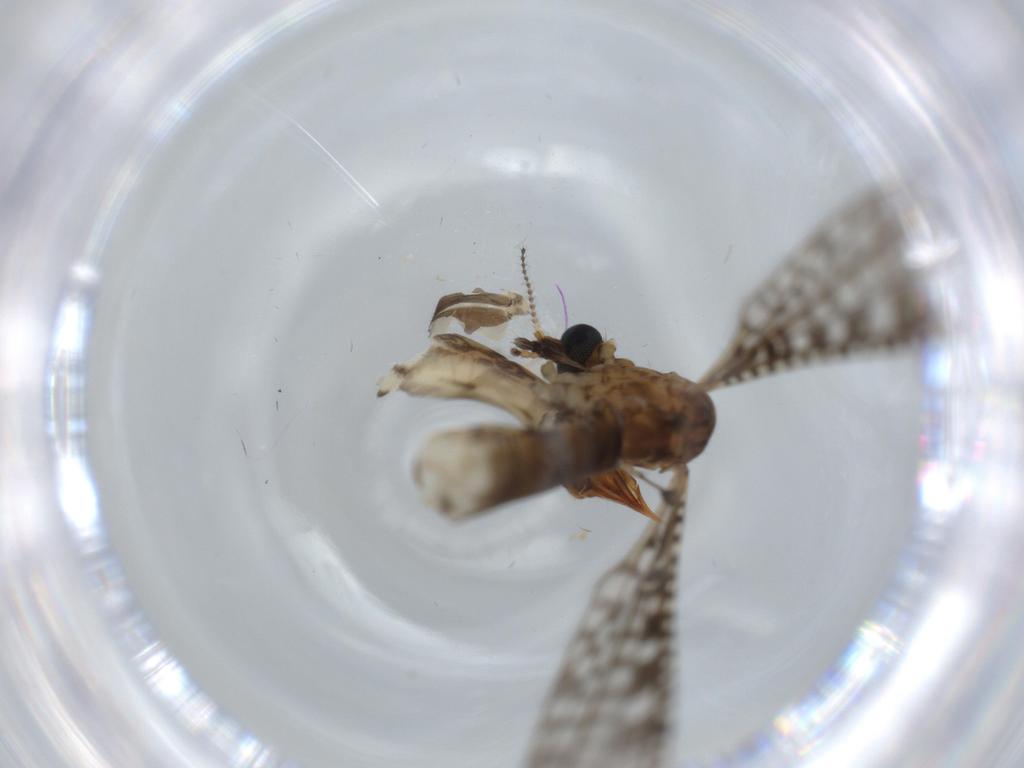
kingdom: Animalia
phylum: Arthropoda
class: Insecta
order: Diptera
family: Limoniidae
